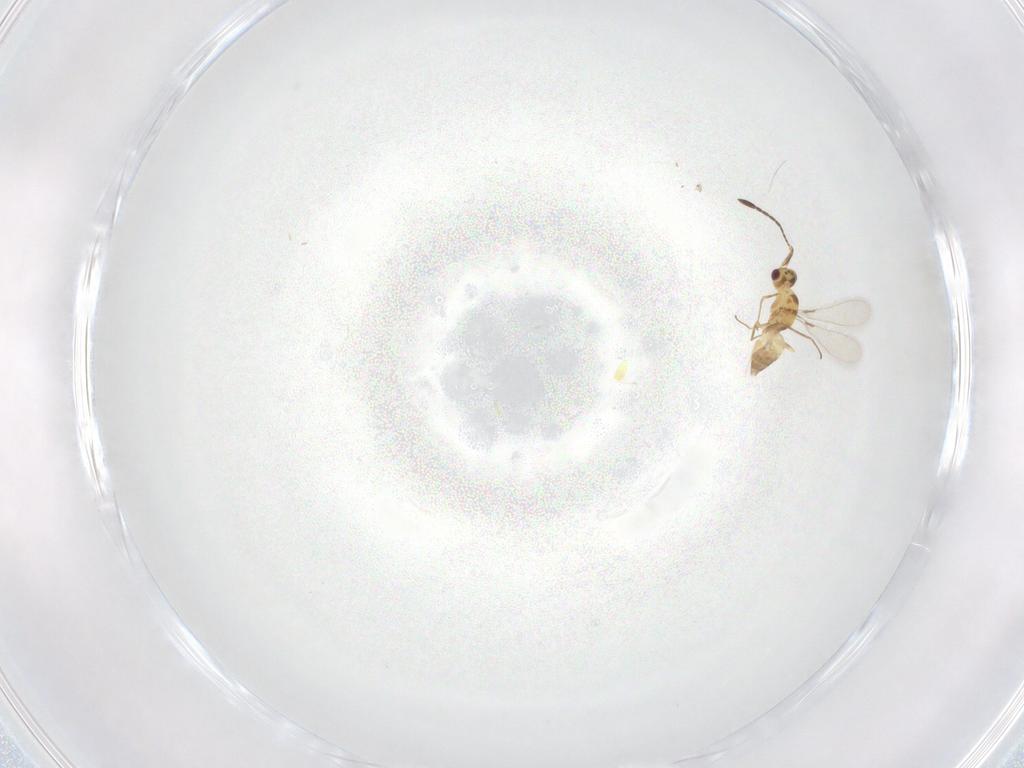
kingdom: Animalia
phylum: Arthropoda
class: Insecta
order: Hymenoptera
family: Mymaridae
